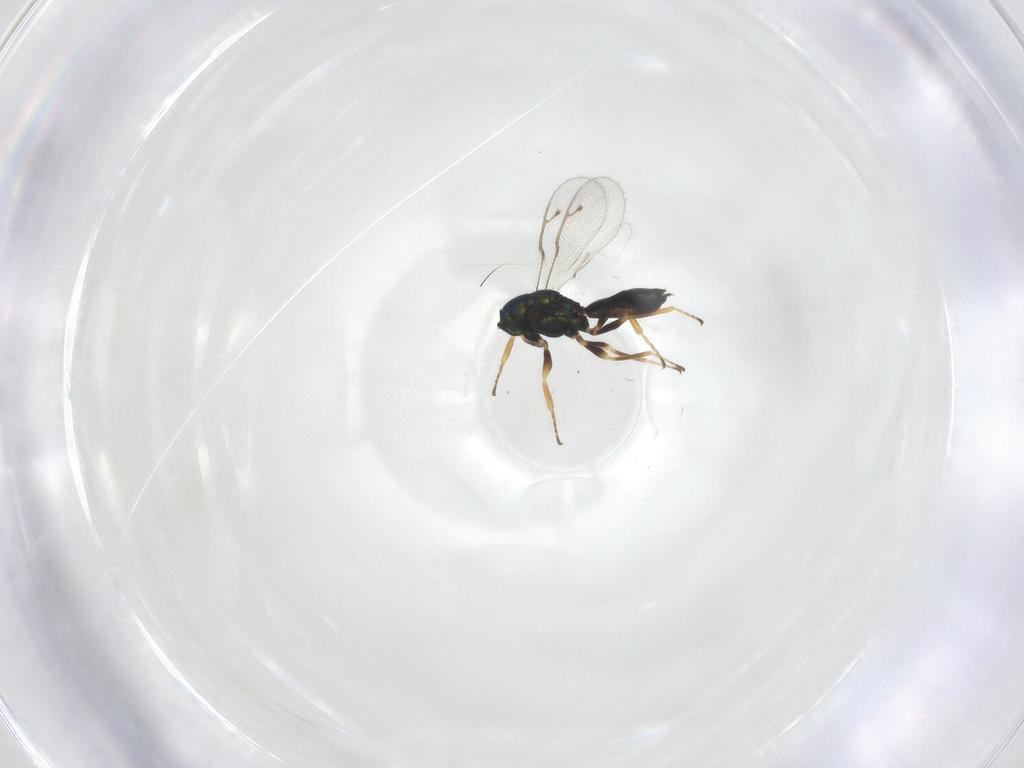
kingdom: Animalia
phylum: Arthropoda
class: Insecta
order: Hymenoptera
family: Pteromalidae
